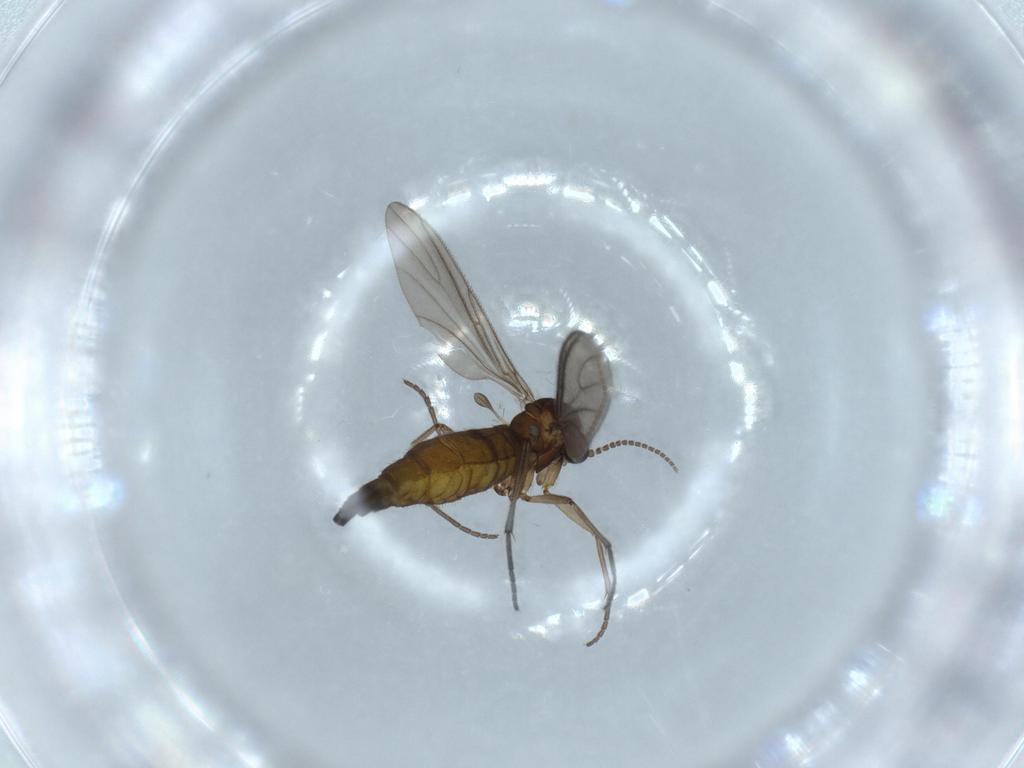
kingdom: Animalia
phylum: Arthropoda
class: Insecta
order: Diptera
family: Sciaridae
